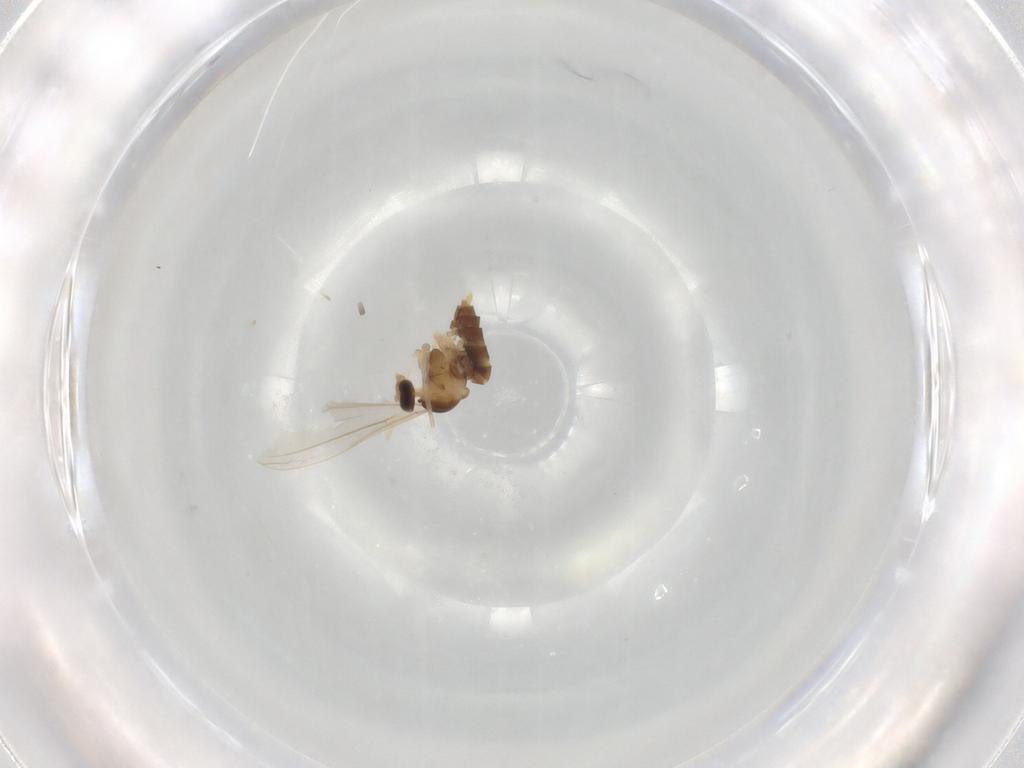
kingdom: Animalia
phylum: Arthropoda
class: Insecta
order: Diptera
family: Cecidomyiidae
